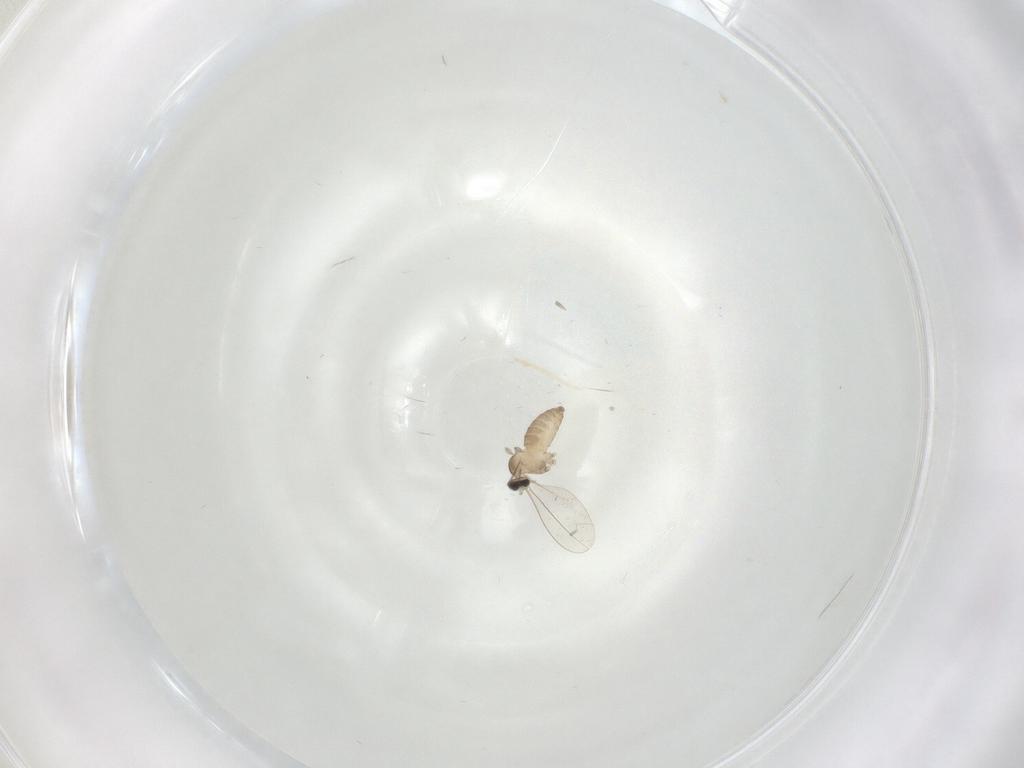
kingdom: Animalia
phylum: Arthropoda
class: Insecta
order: Diptera
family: Cecidomyiidae
